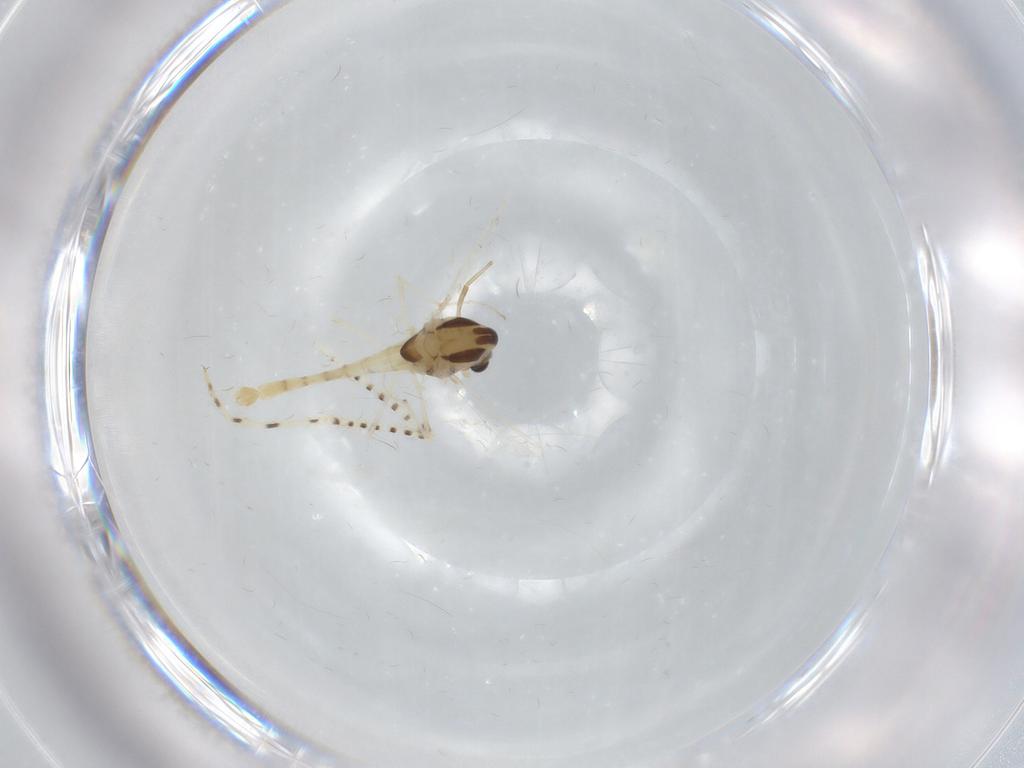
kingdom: Animalia
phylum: Arthropoda
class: Insecta
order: Diptera
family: Chironomidae
